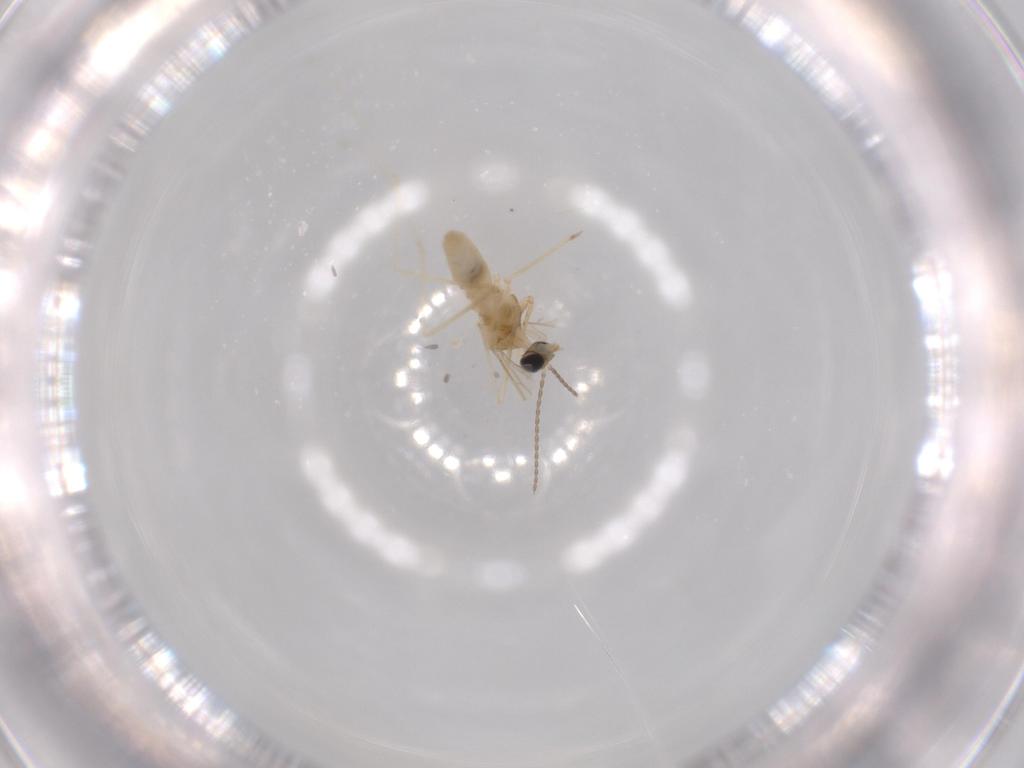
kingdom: Animalia
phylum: Arthropoda
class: Insecta
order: Diptera
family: Cecidomyiidae
